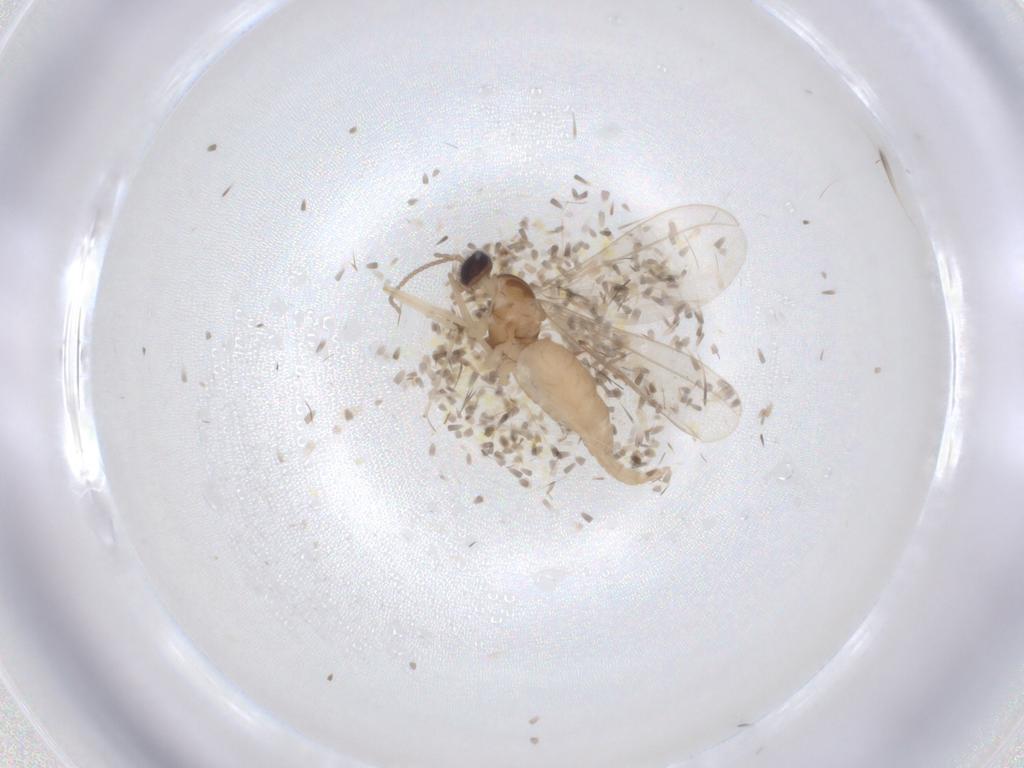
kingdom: Animalia
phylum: Arthropoda
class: Insecta
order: Diptera
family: Cecidomyiidae
